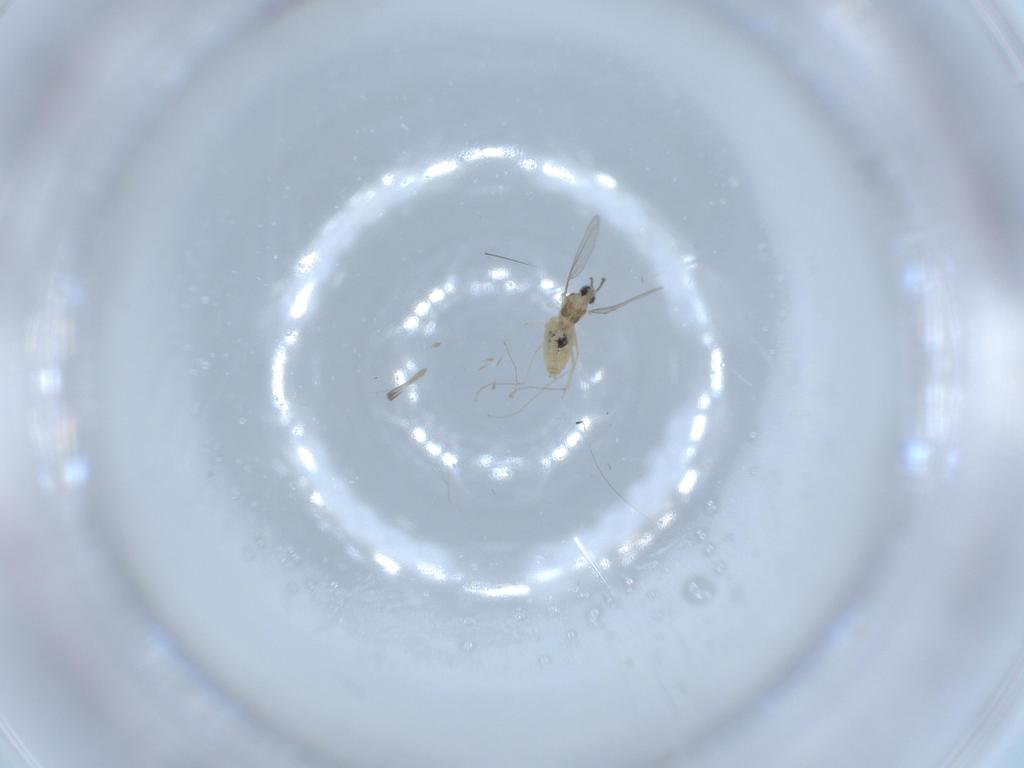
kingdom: Animalia
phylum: Arthropoda
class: Insecta
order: Diptera
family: Cecidomyiidae
